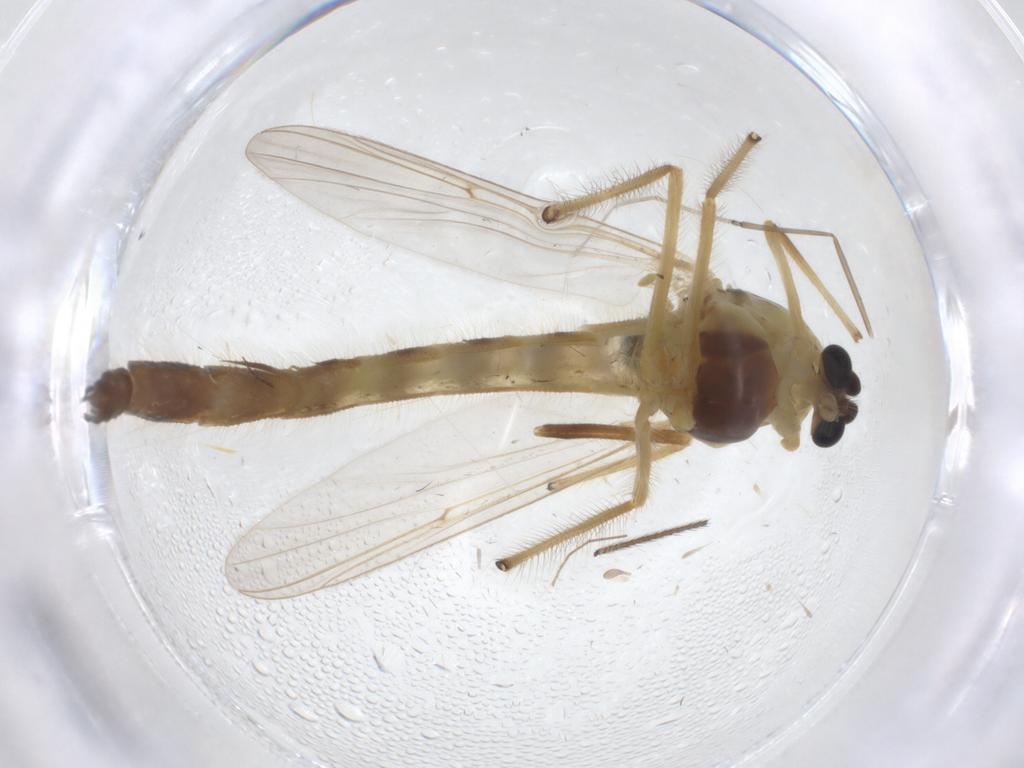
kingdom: Animalia
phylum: Arthropoda
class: Insecta
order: Diptera
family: Chironomidae
